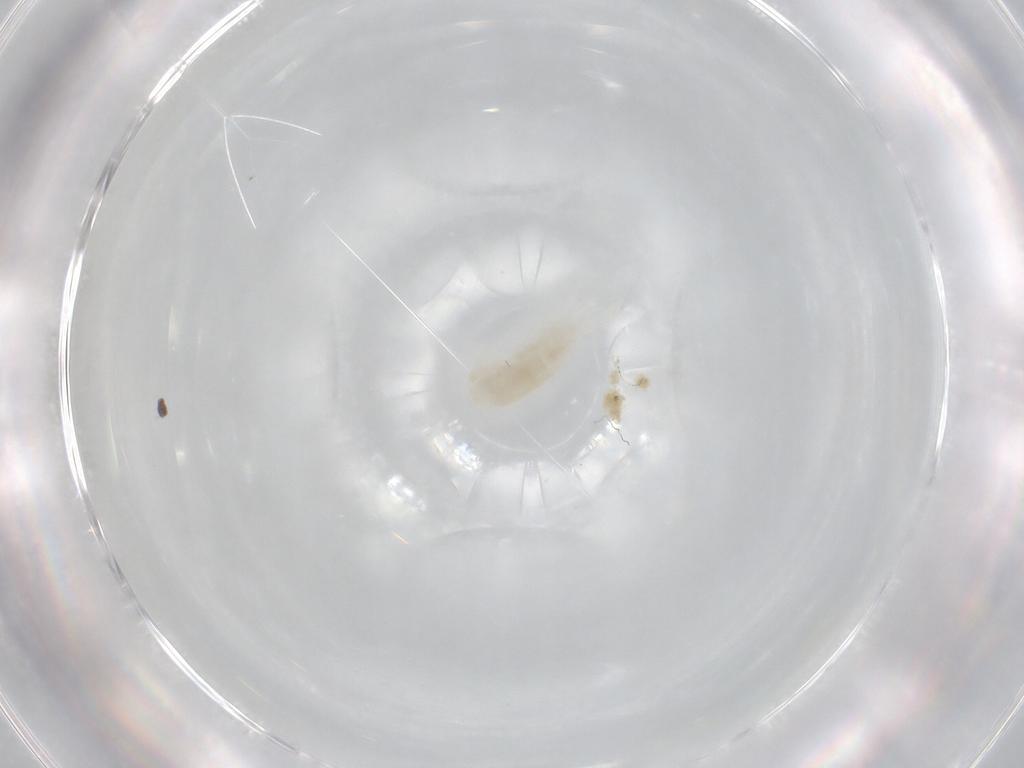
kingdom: Animalia
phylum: Arthropoda
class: Copepoda
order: Calanoida
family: Diaptomidae
